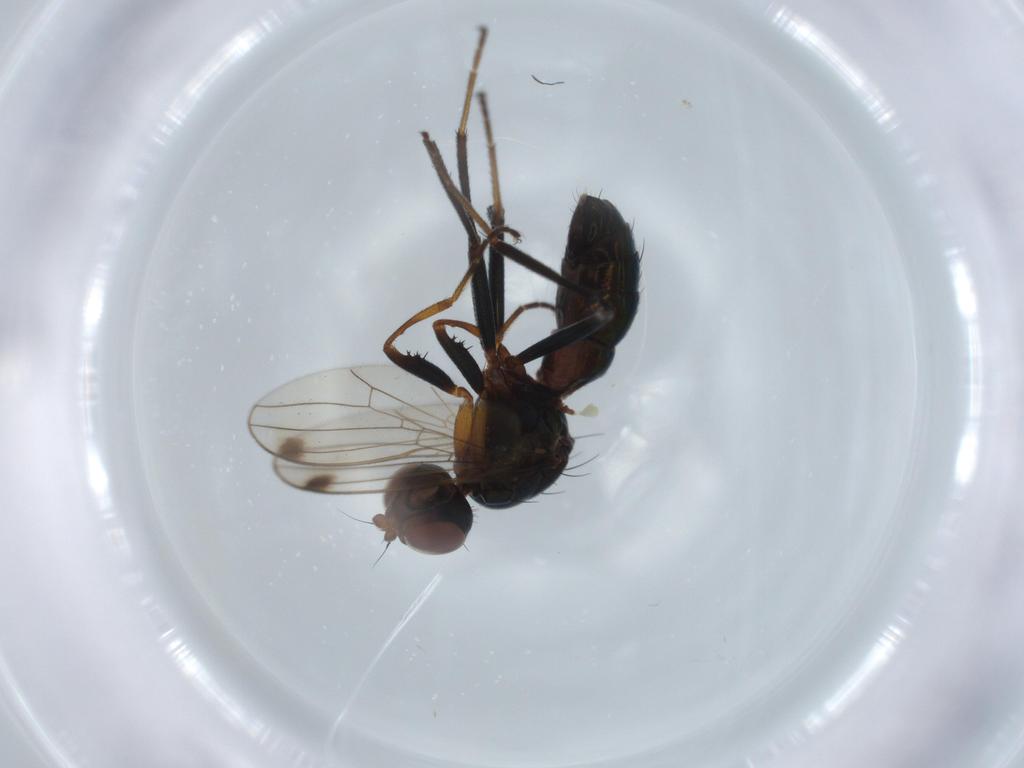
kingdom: Animalia
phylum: Arthropoda
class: Insecta
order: Diptera
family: Sepsidae
